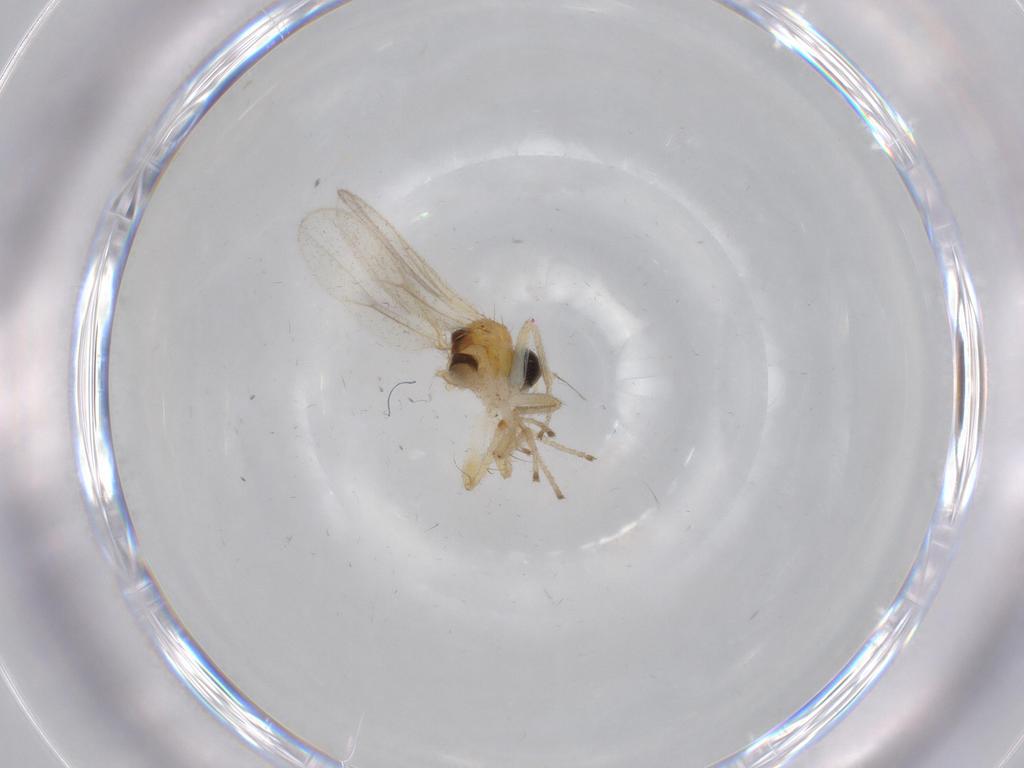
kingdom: Animalia
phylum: Arthropoda
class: Insecta
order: Diptera
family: Hybotidae
